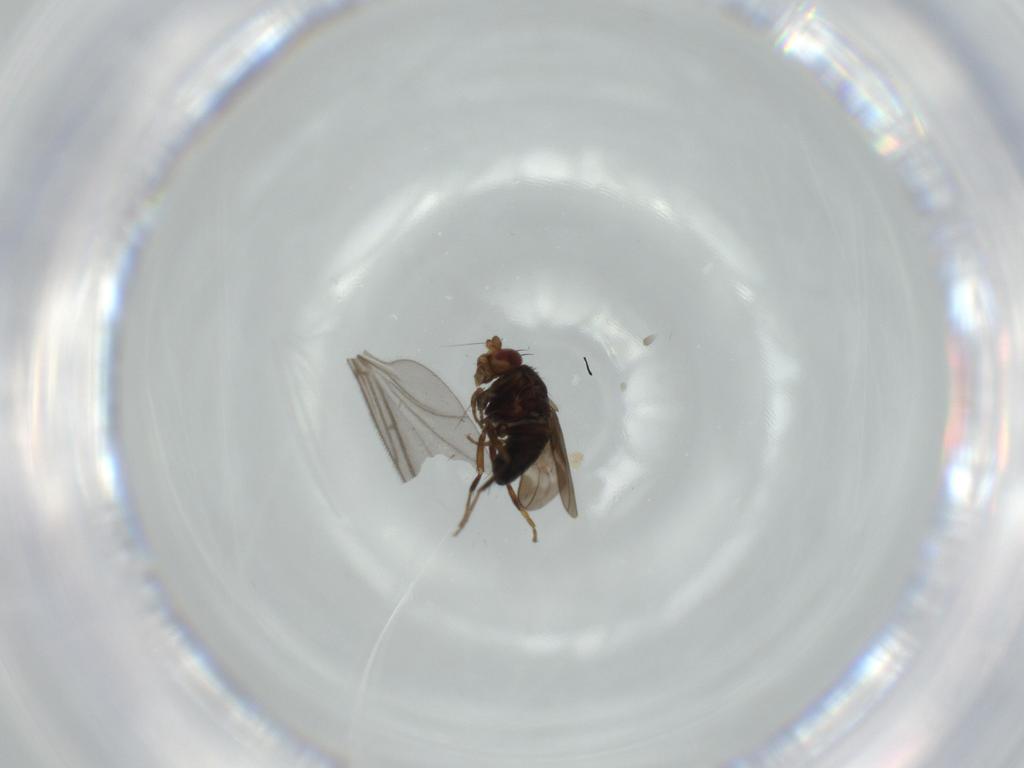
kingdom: Animalia
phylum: Arthropoda
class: Insecta
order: Diptera
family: Sphaeroceridae
